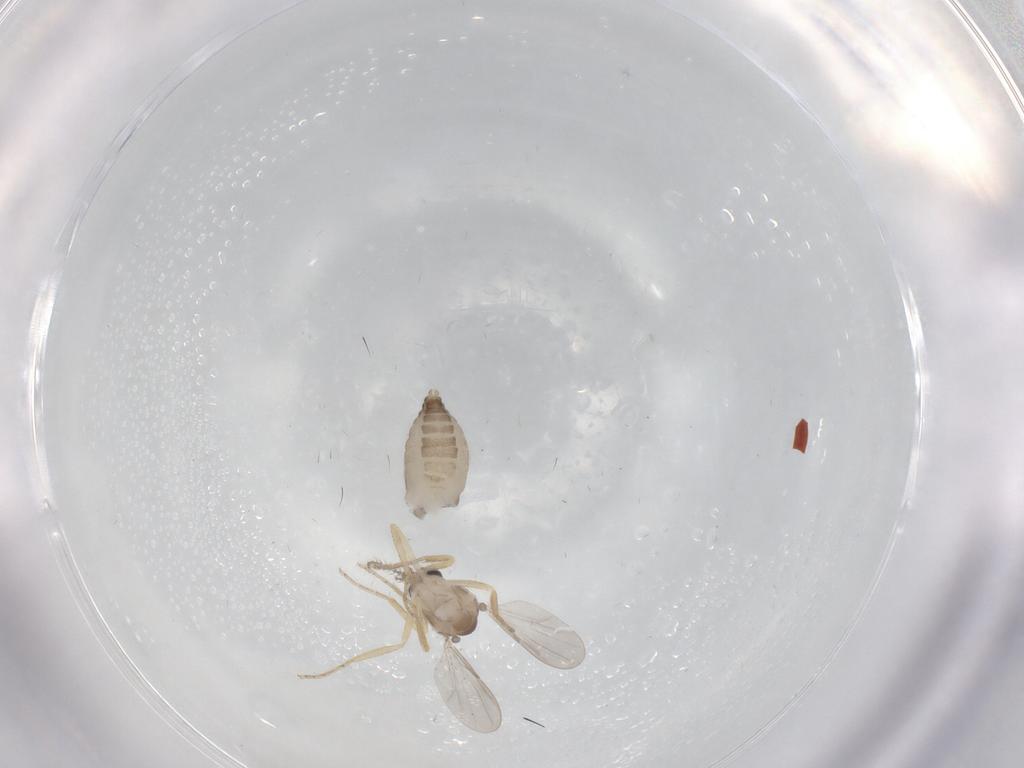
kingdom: Animalia
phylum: Arthropoda
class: Insecta
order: Diptera
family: Ceratopogonidae
